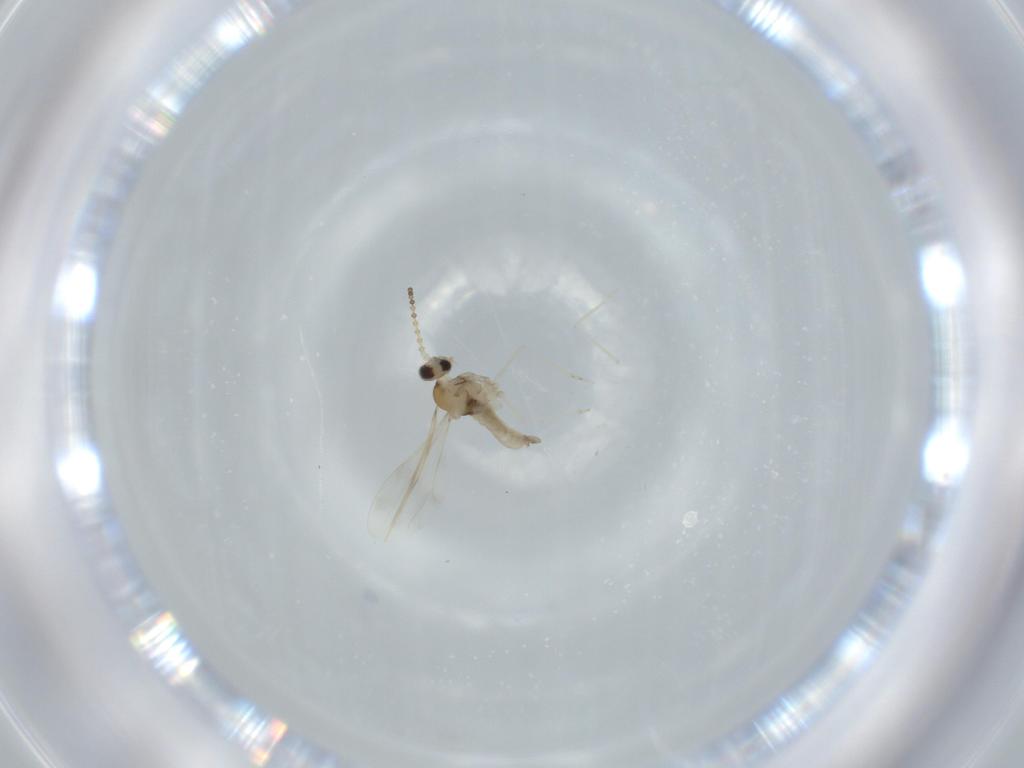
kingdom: Animalia
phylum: Arthropoda
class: Insecta
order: Diptera
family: Cecidomyiidae
